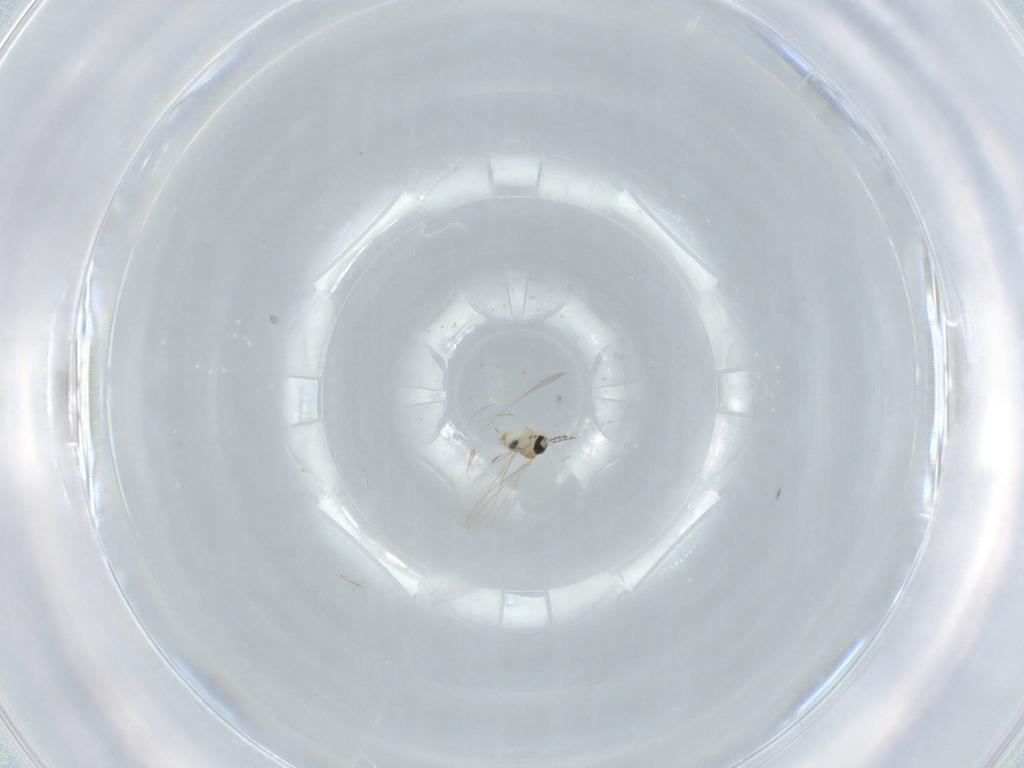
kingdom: Animalia
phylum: Arthropoda
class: Insecta
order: Diptera
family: Cecidomyiidae
